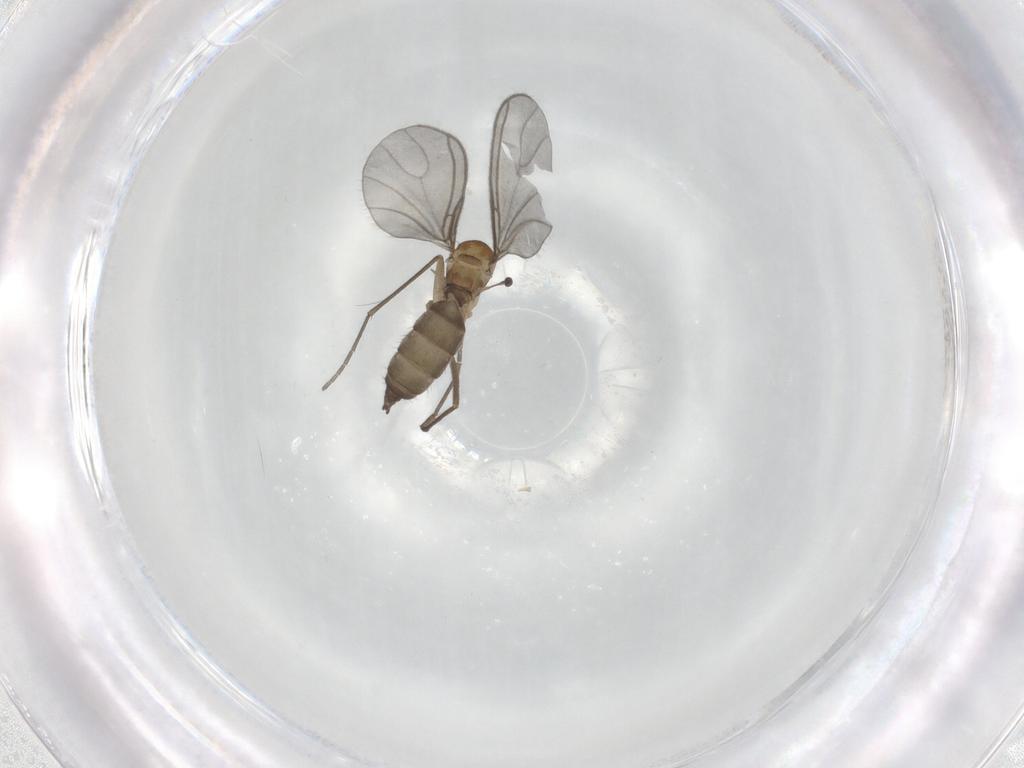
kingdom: Animalia
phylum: Arthropoda
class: Insecta
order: Diptera
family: Sciaridae
